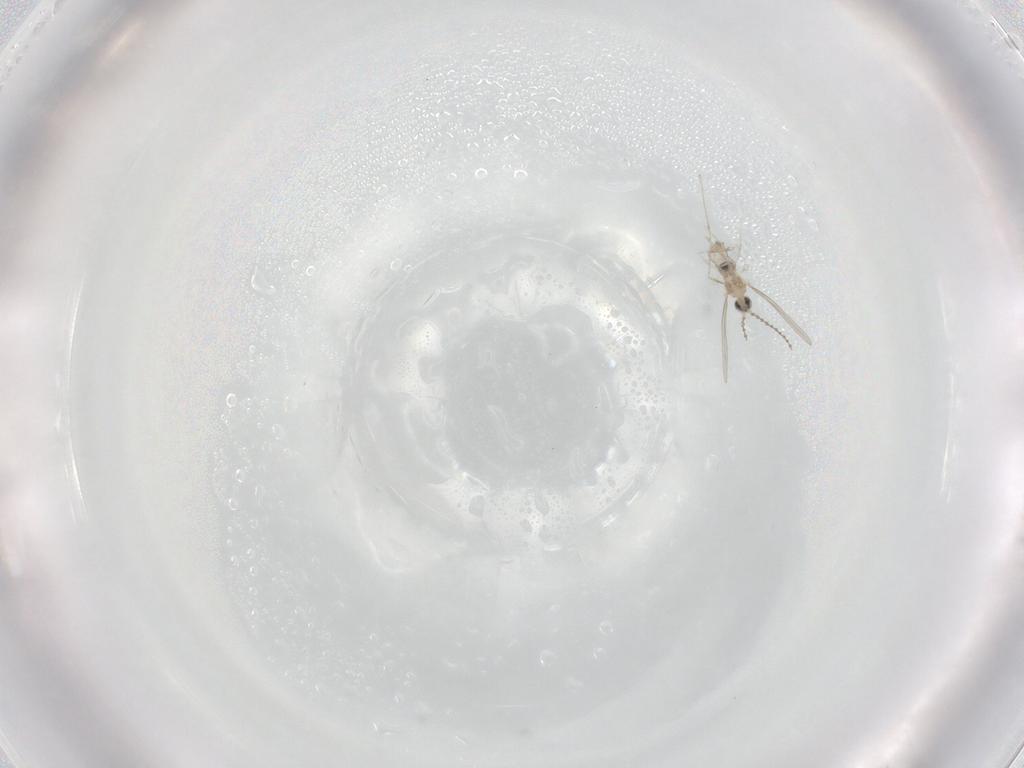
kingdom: Animalia
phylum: Arthropoda
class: Insecta
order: Diptera
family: Cecidomyiidae
